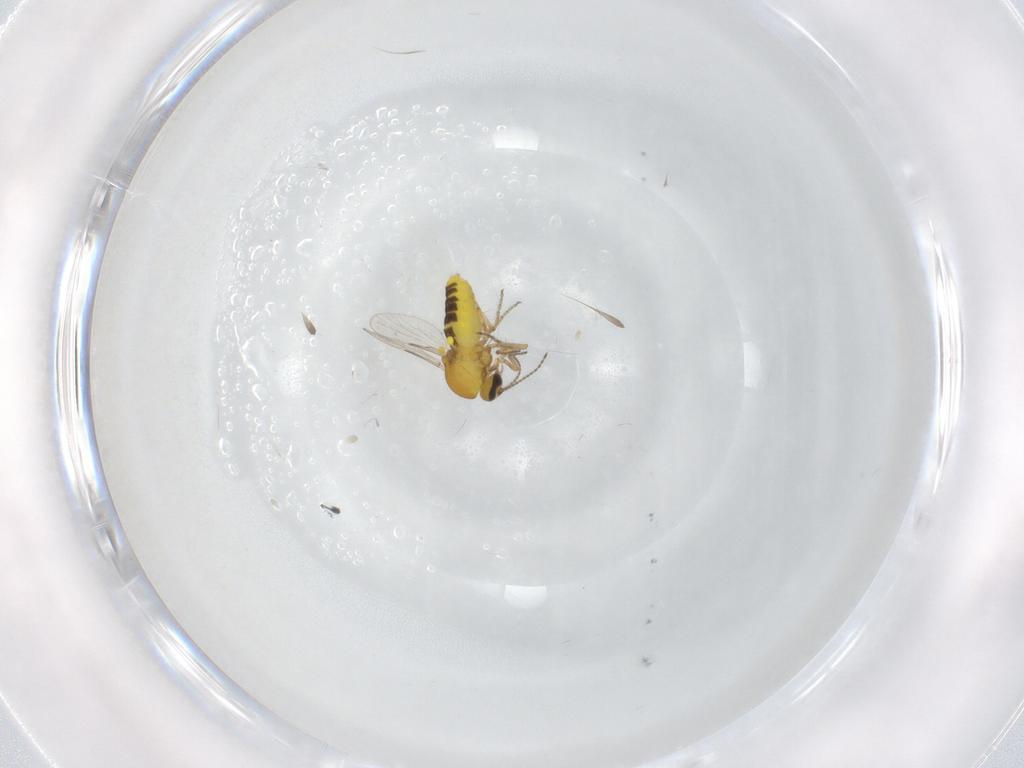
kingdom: Animalia
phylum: Arthropoda
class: Insecta
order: Diptera
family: Ceratopogonidae
